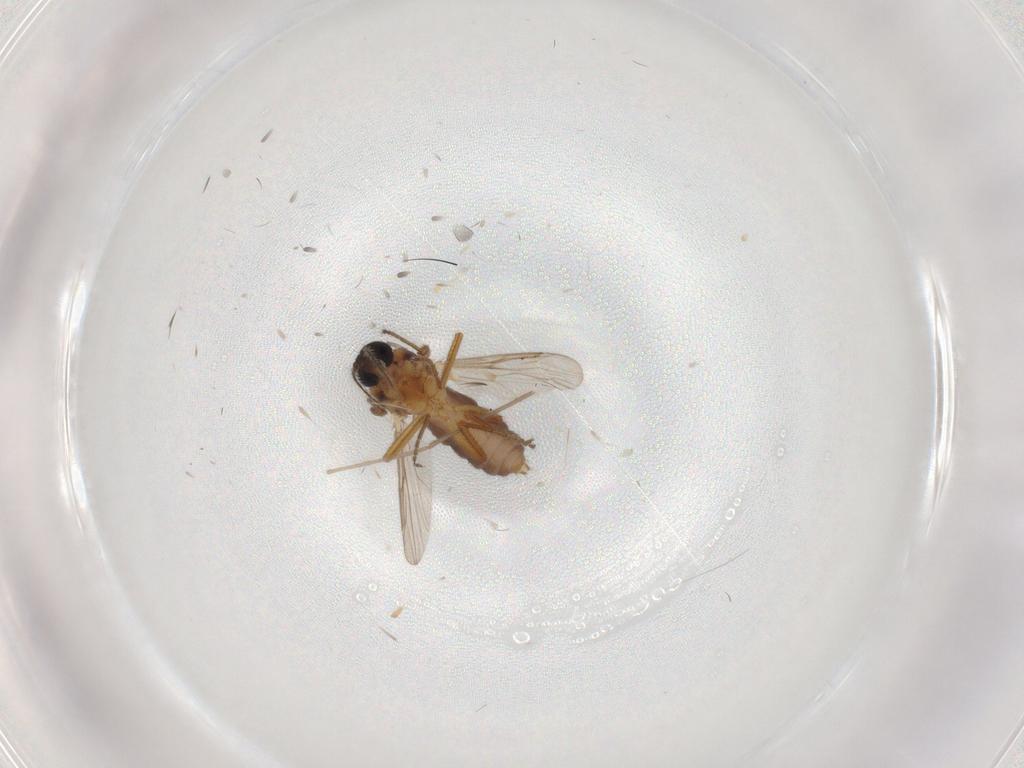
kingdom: Animalia
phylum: Arthropoda
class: Insecta
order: Diptera
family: Ceratopogonidae
